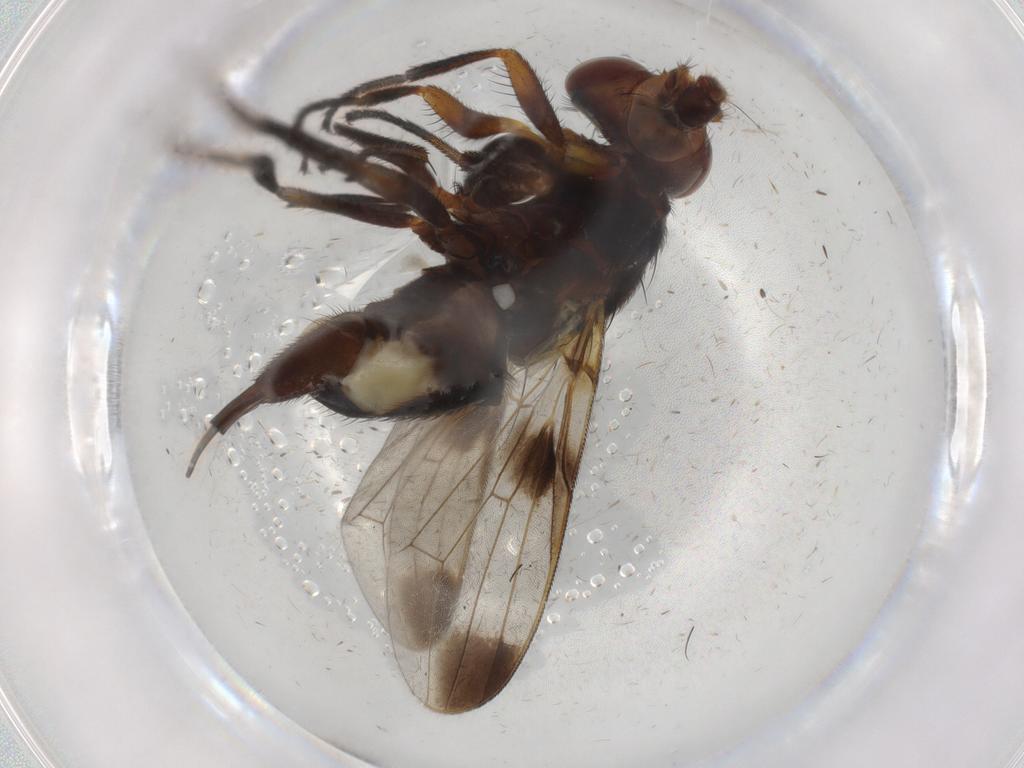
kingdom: Animalia
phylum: Arthropoda
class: Insecta
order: Diptera
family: Ulidiidae
